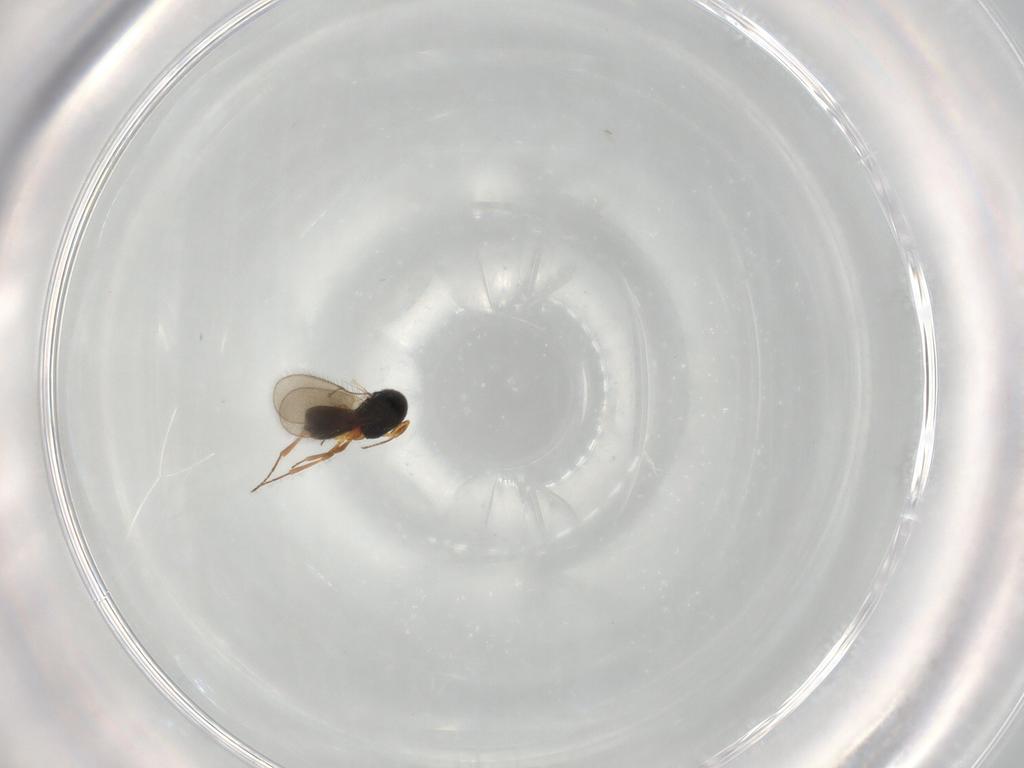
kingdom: Animalia
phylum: Arthropoda
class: Insecta
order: Hymenoptera
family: Scelionidae
